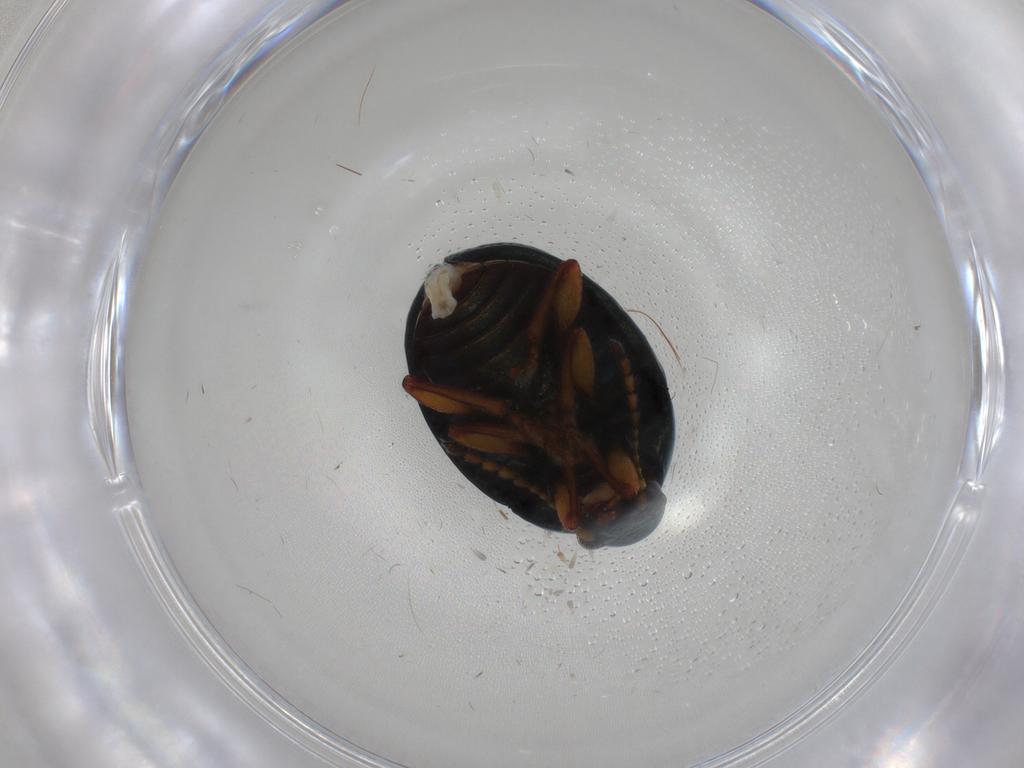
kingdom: Animalia
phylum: Arthropoda
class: Insecta
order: Coleoptera
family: Chrysomelidae
